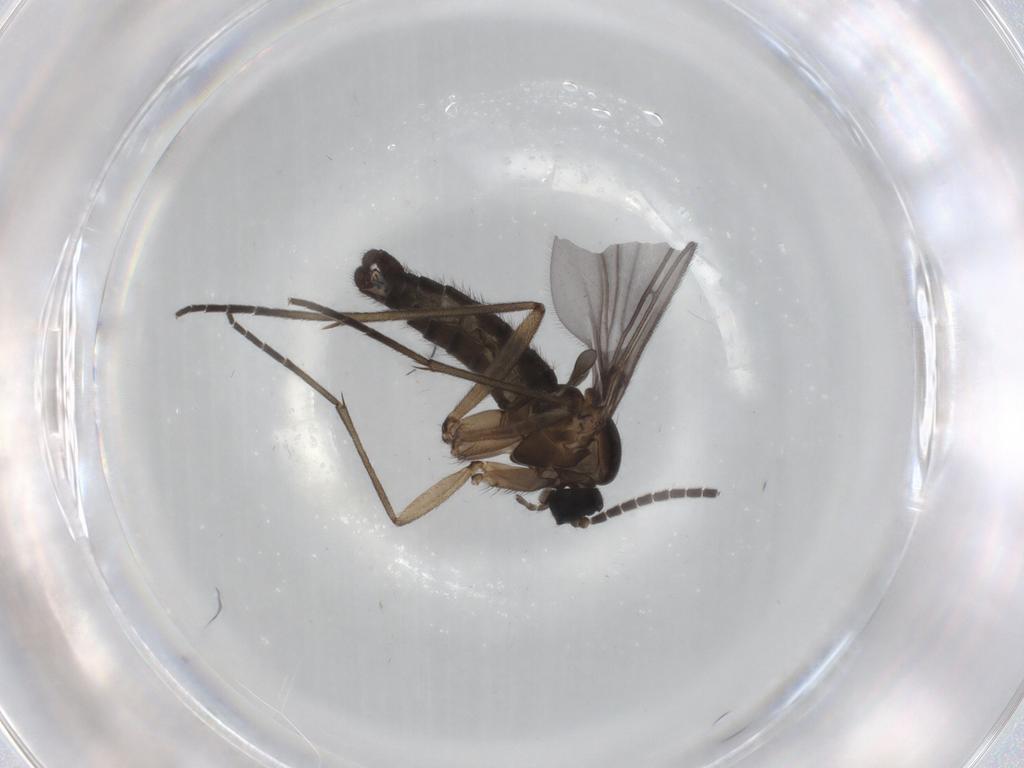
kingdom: Animalia
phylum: Arthropoda
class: Insecta
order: Diptera
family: Sciaridae
